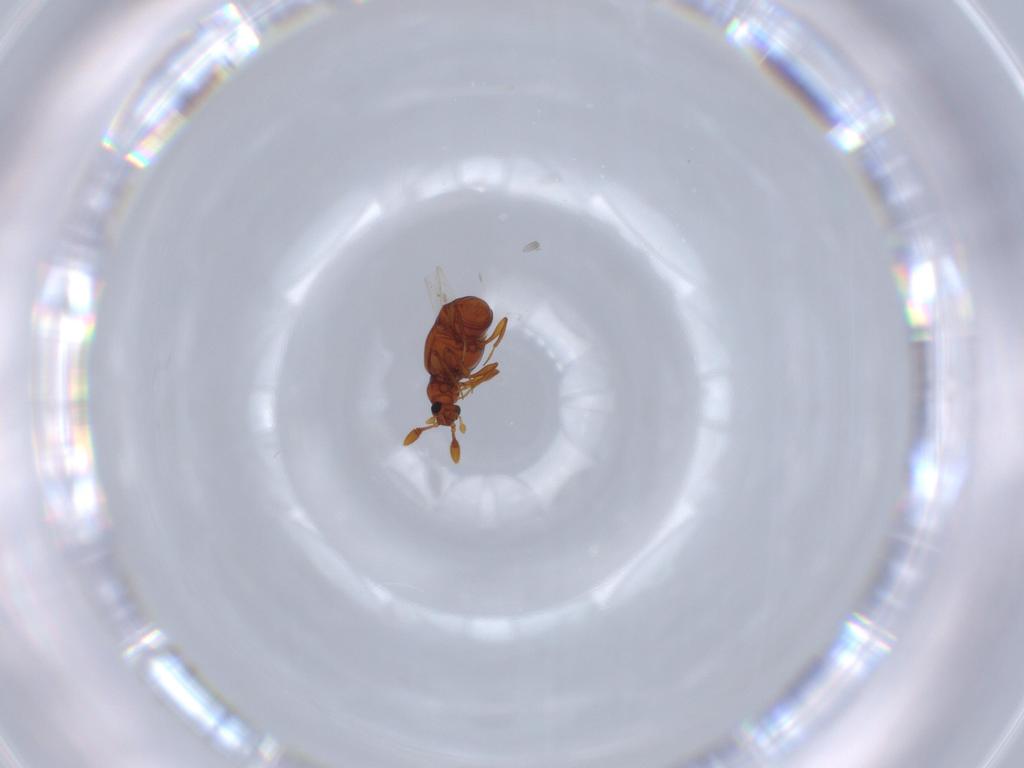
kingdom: Animalia
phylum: Arthropoda
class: Insecta
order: Coleoptera
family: Staphylinidae
